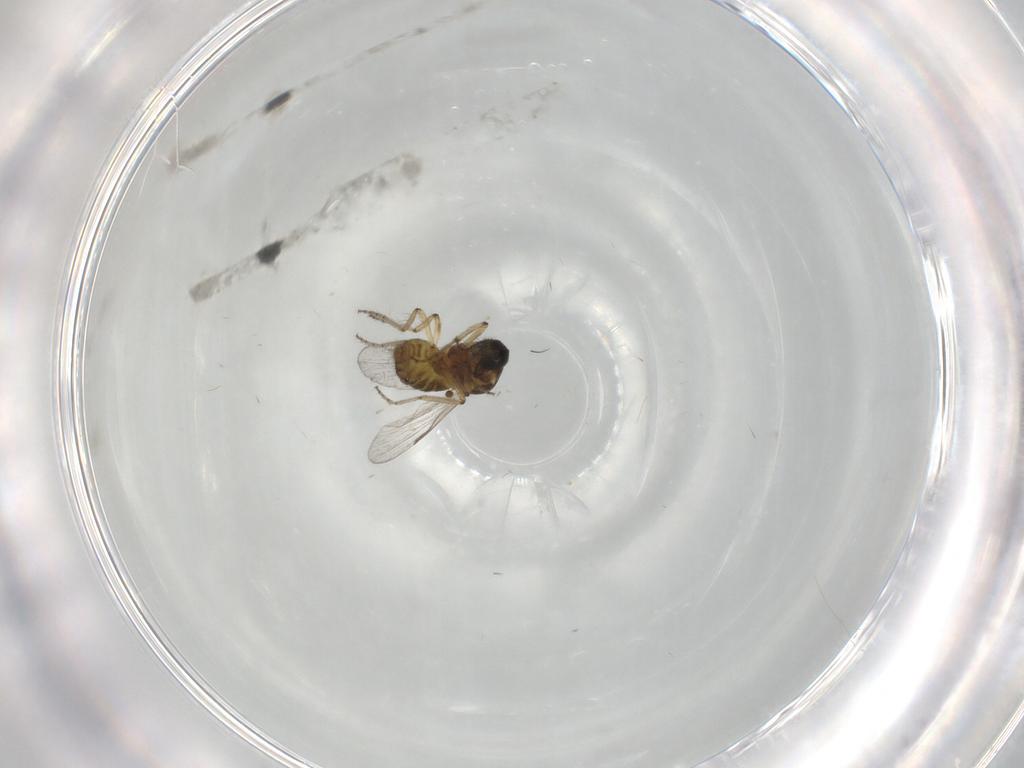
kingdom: Animalia
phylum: Arthropoda
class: Insecta
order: Diptera
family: Ceratopogonidae
